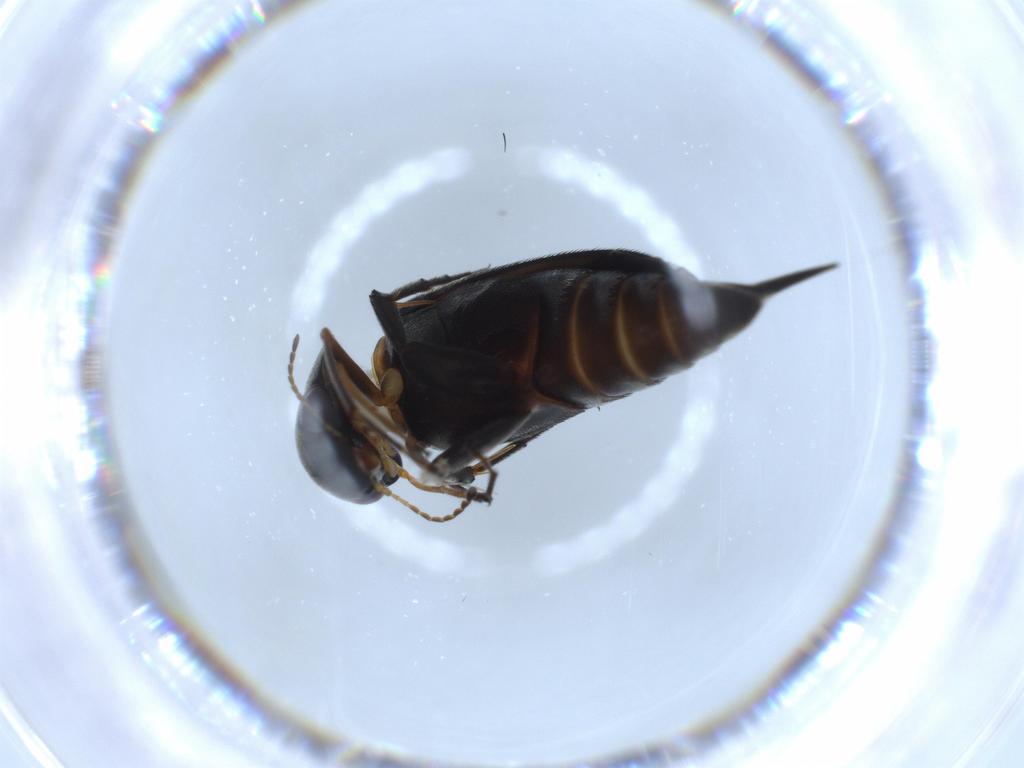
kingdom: Animalia
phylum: Arthropoda
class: Insecta
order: Coleoptera
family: Mordellidae
